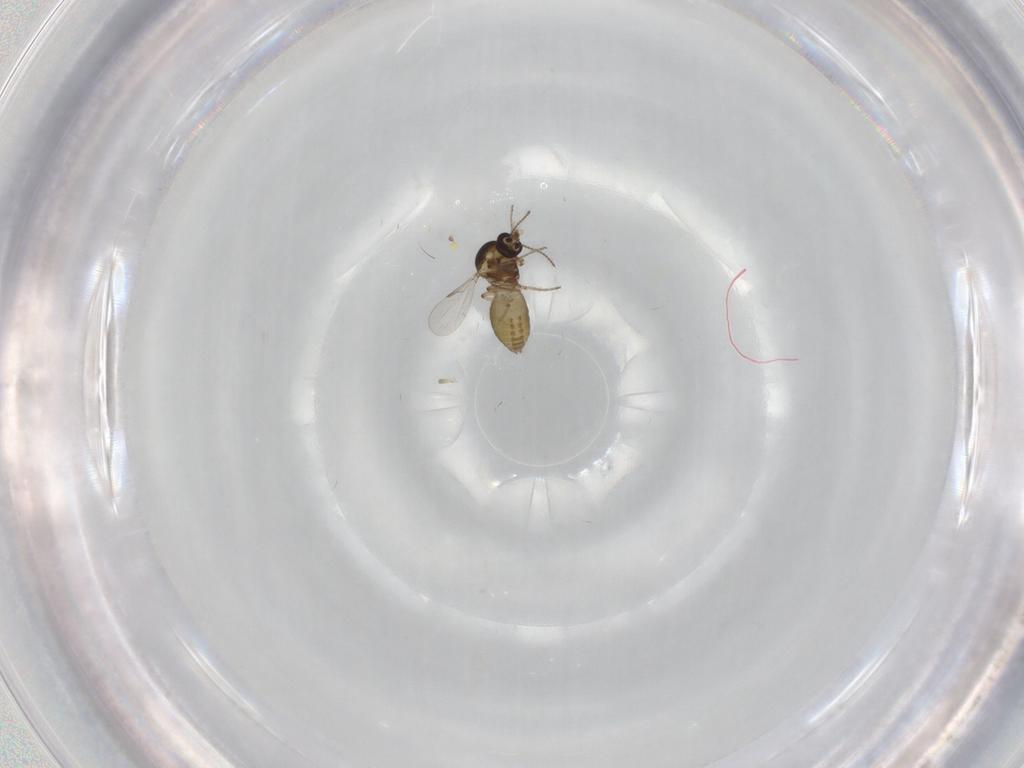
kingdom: Animalia
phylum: Arthropoda
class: Insecta
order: Diptera
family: Ceratopogonidae
